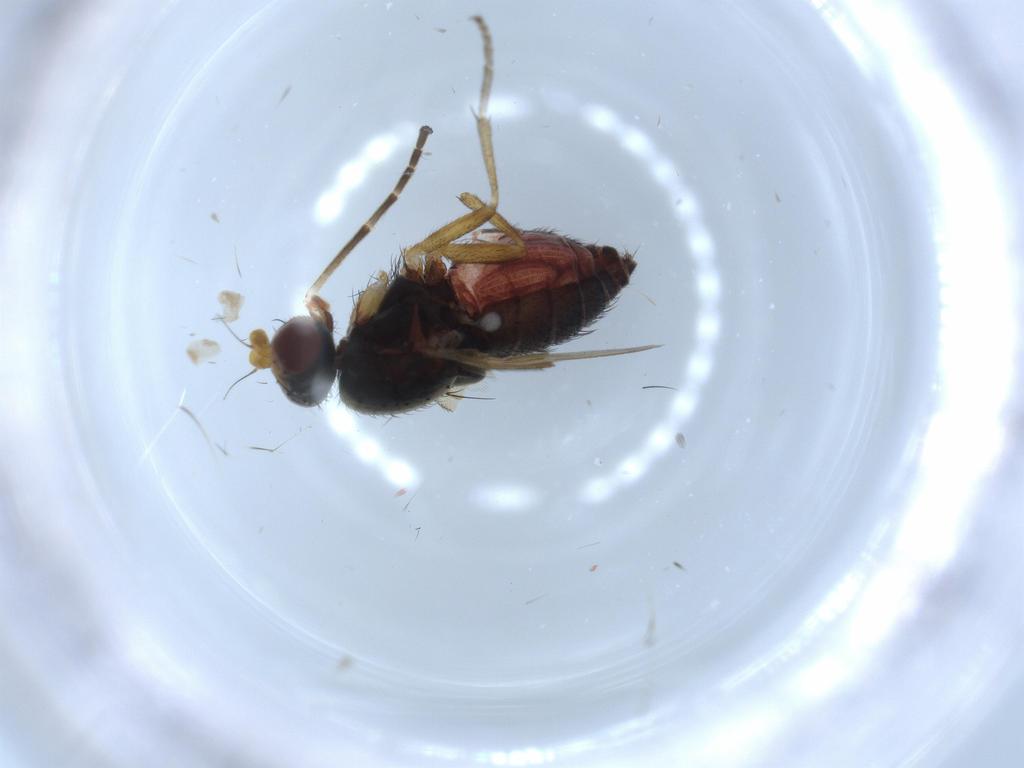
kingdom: Animalia
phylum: Arthropoda
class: Insecta
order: Diptera
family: Heleomyzidae
